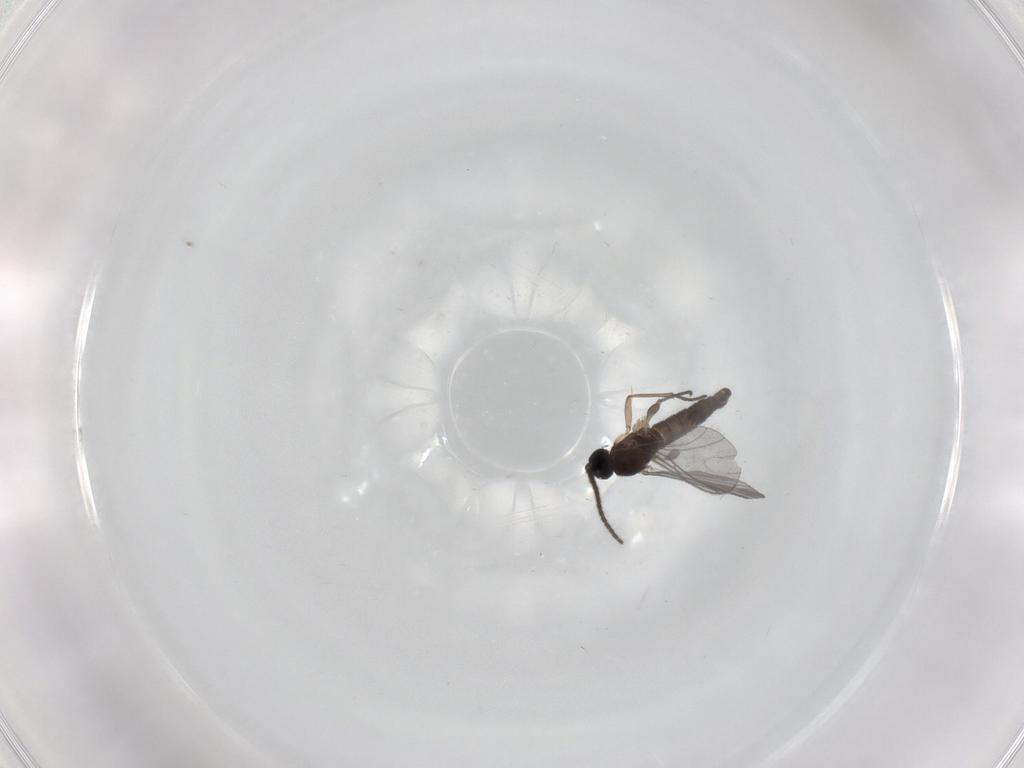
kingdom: Animalia
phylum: Arthropoda
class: Insecta
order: Diptera
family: Sciaridae
